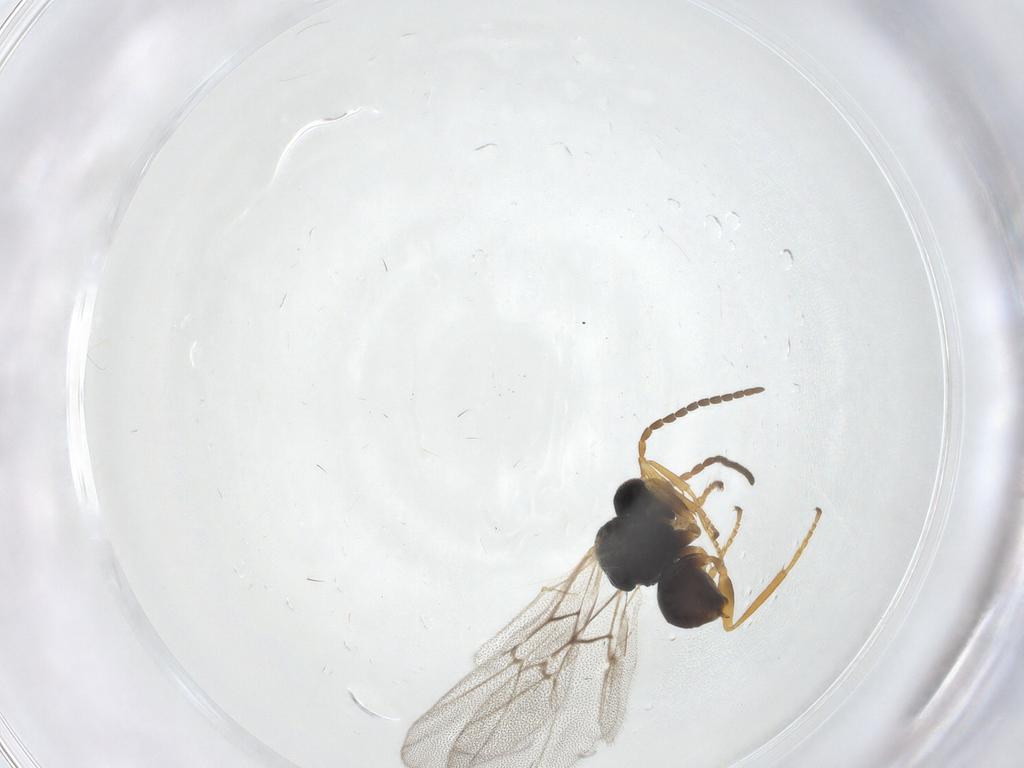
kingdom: Animalia
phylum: Arthropoda
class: Insecta
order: Hymenoptera
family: Cynipidae
